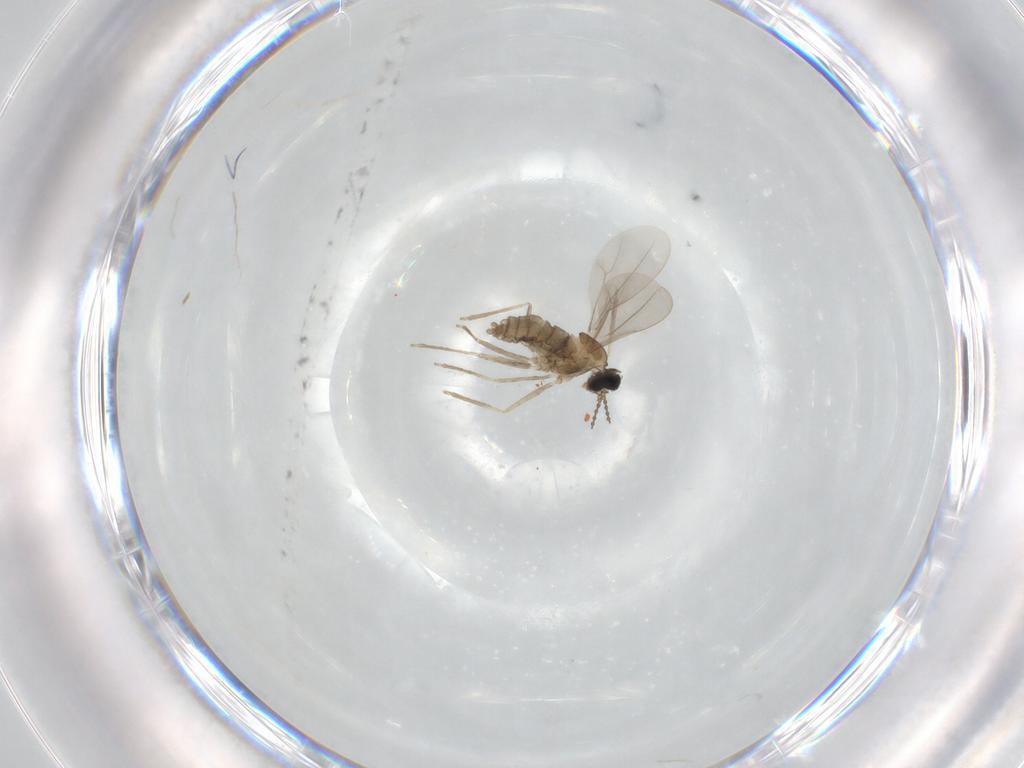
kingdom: Animalia
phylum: Arthropoda
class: Insecta
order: Diptera
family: Cecidomyiidae
